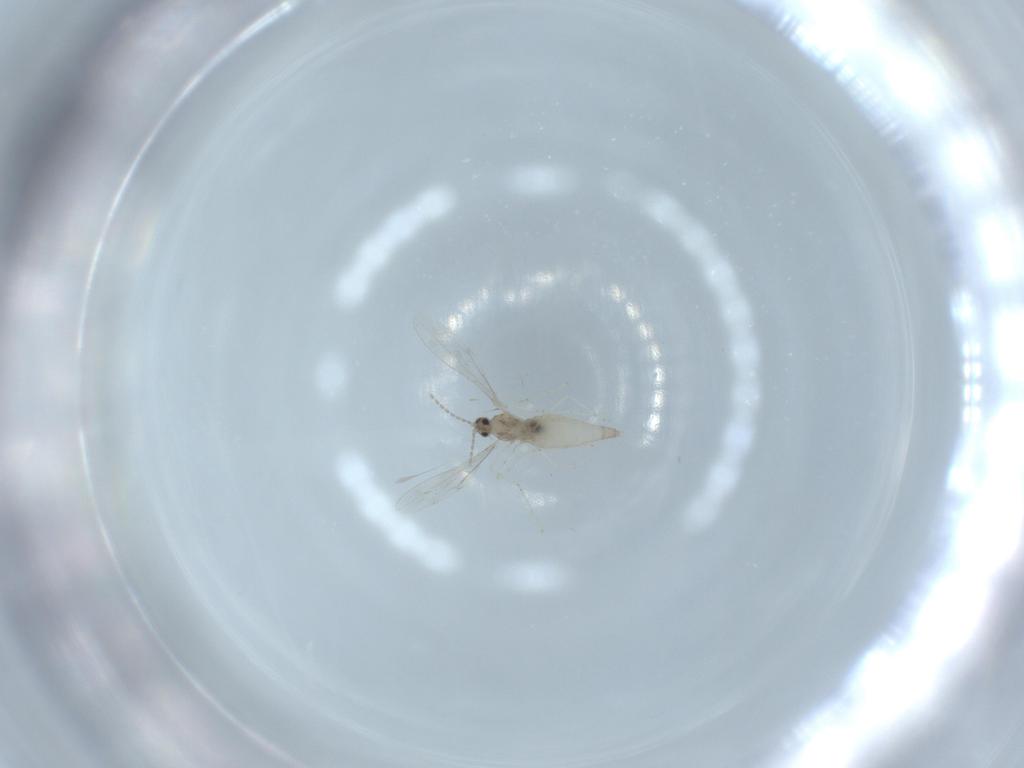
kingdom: Animalia
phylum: Arthropoda
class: Insecta
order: Diptera
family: Cecidomyiidae
